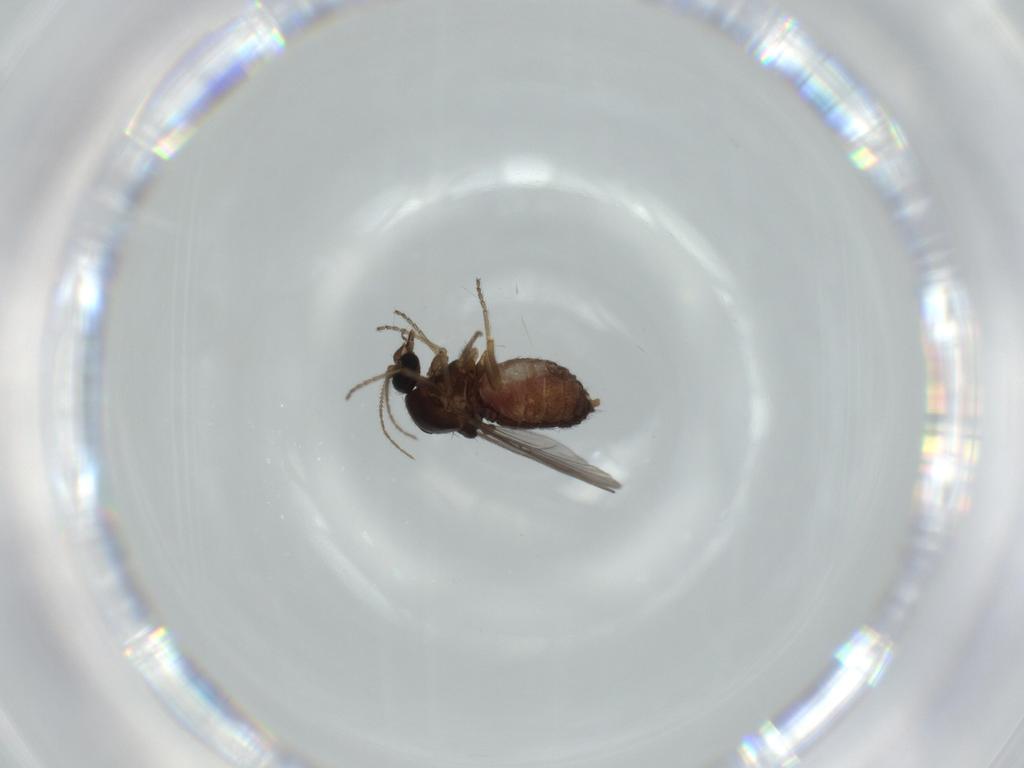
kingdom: Animalia
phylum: Arthropoda
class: Insecta
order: Diptera
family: Ceratopogonidae
